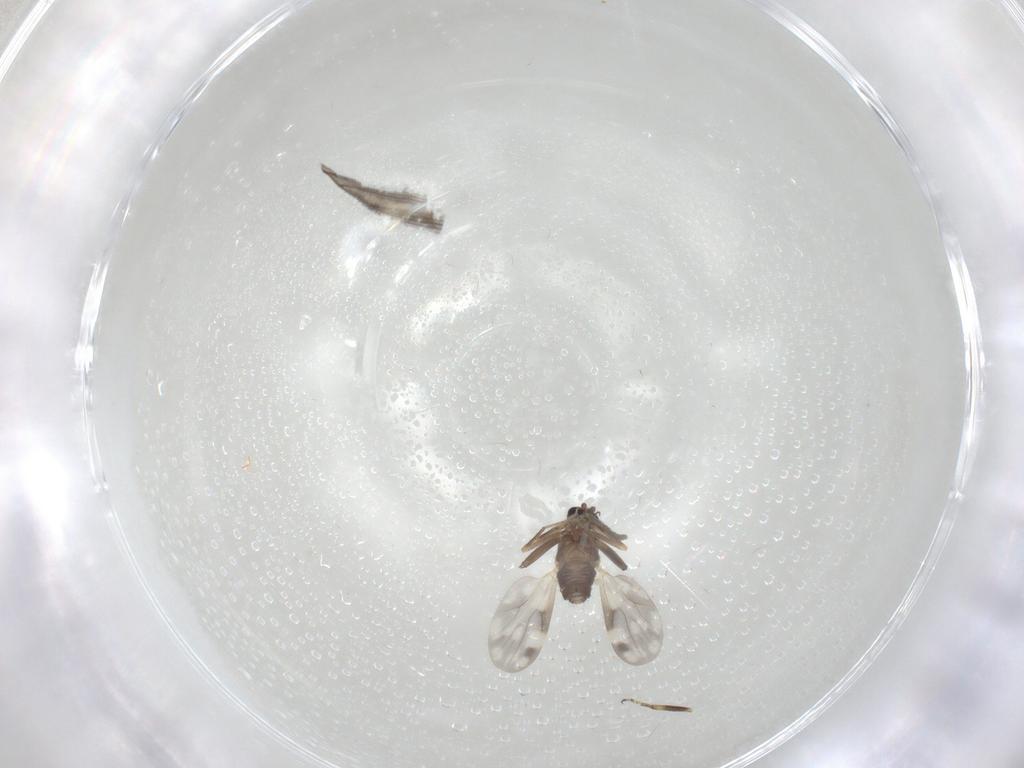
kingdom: Animalia
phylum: Arthropoda
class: Insecta
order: Diptera
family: Ceratopogonidae
